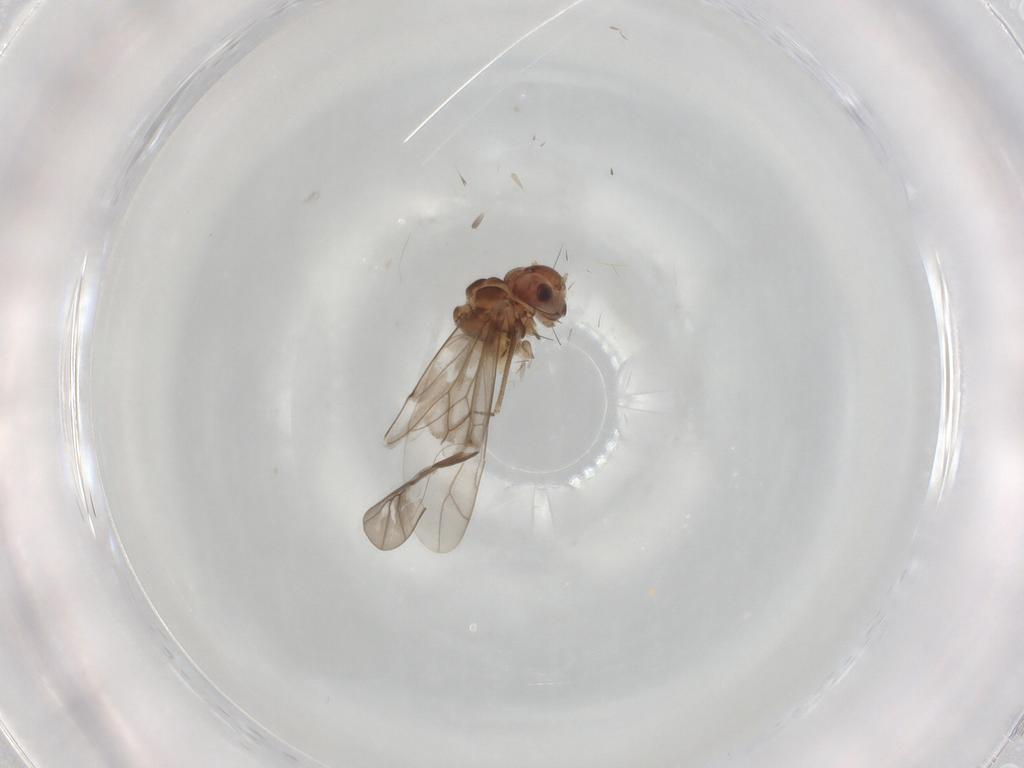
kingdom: Animalia
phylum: Arthropoda
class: Insecta
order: Psocodea
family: Peripsocidae
